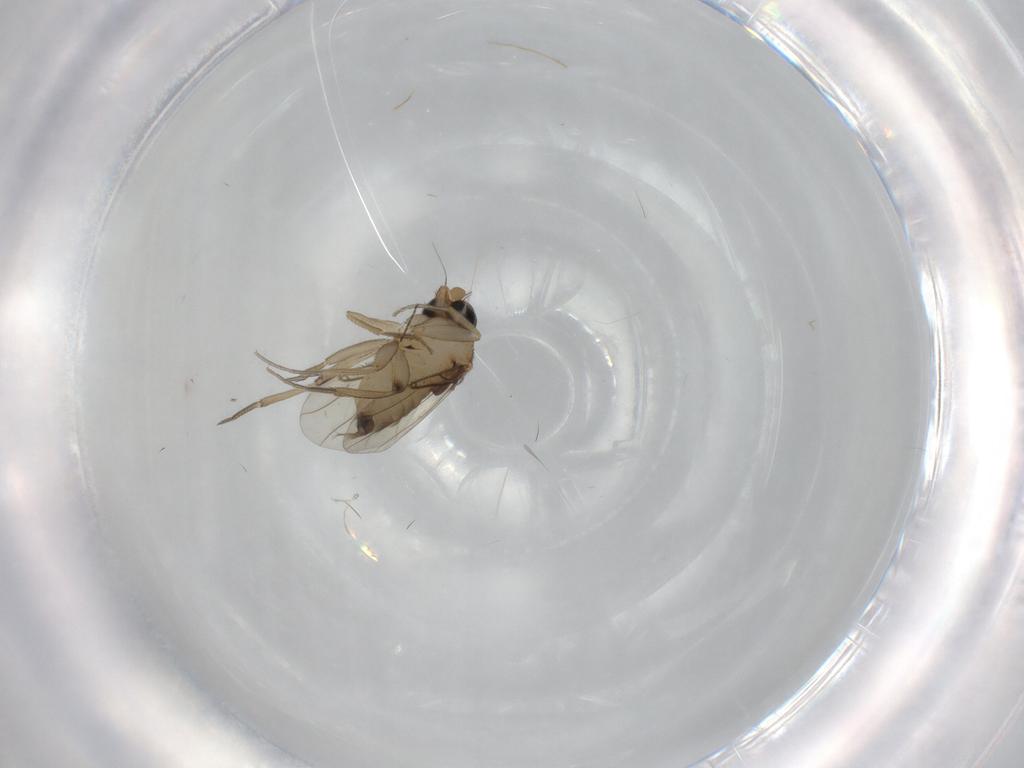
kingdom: Animalia
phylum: Arthropoda
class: Insecta
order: Diptera
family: Phoridae
